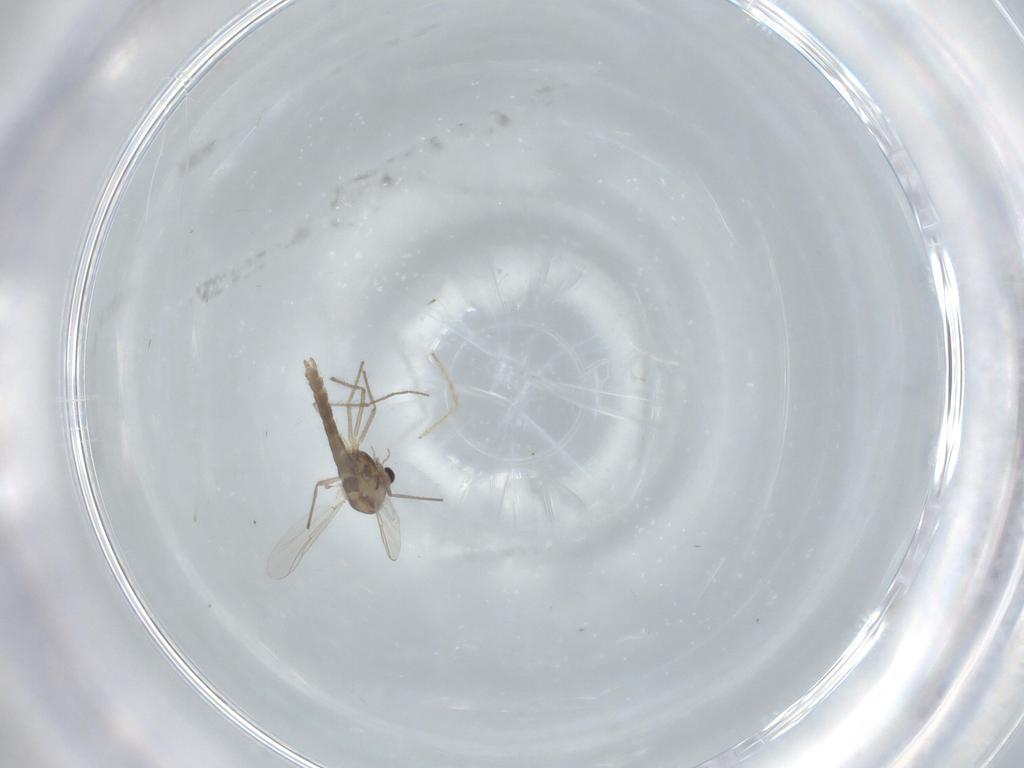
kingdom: Animalia
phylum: Arthropoda
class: Insecta
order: Diptera
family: Chironomidae
